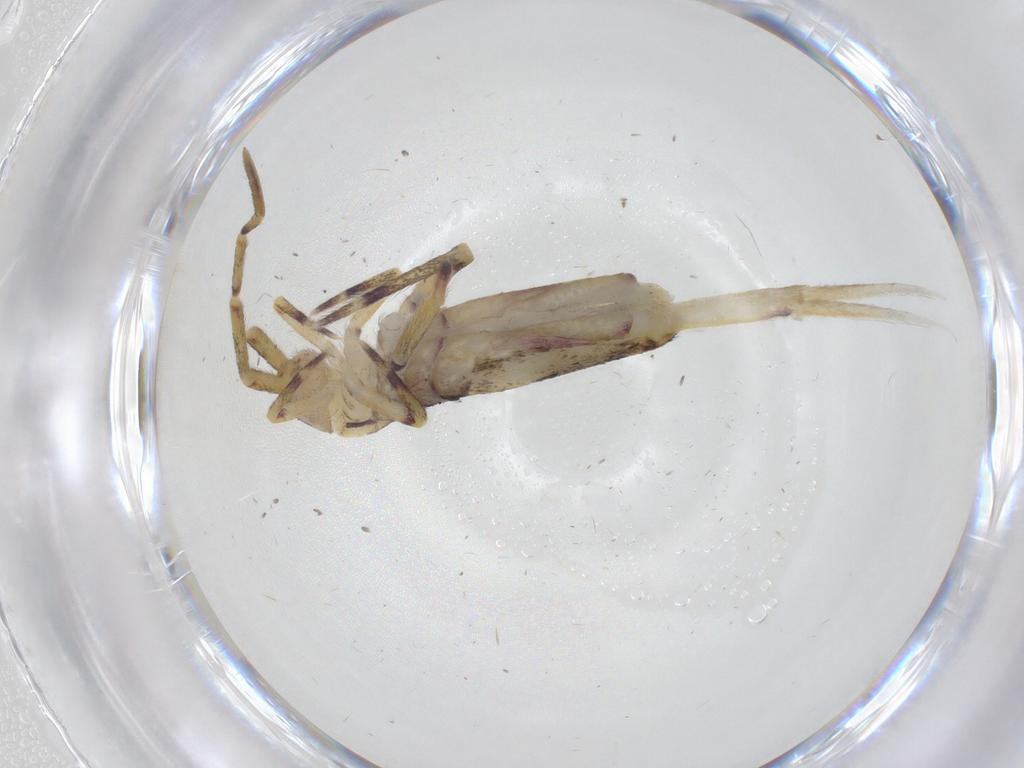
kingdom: Animalia
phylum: Arthropoda
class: Collembola
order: Entomobryomorpha
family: Entomobryidae
